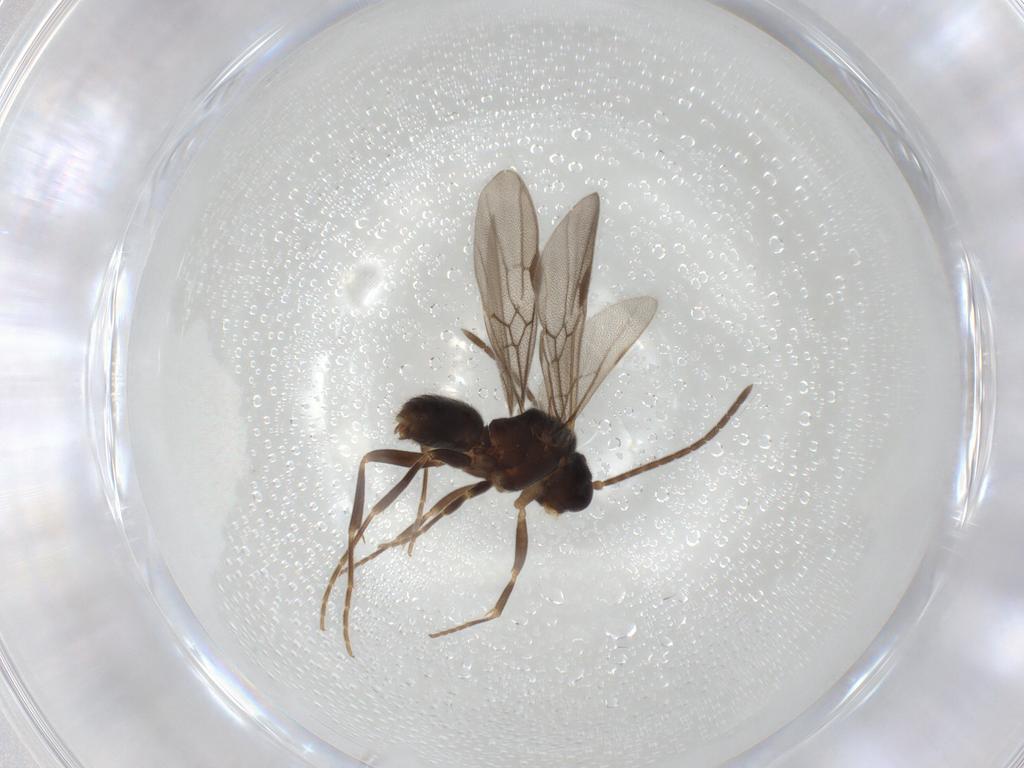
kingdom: Animalia
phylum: Arthropoda
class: Insecta
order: Hymenoptera
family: Formicidae
